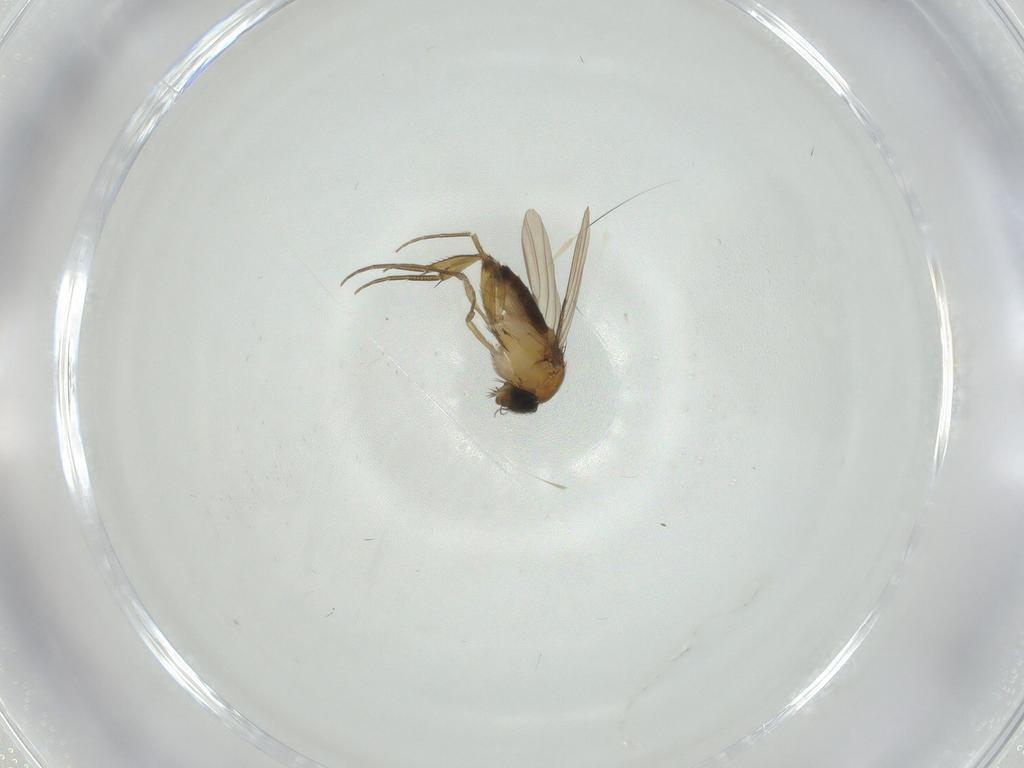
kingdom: Animalia
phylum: Arthropoda
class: Insecta
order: Diptera
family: Phoridae
